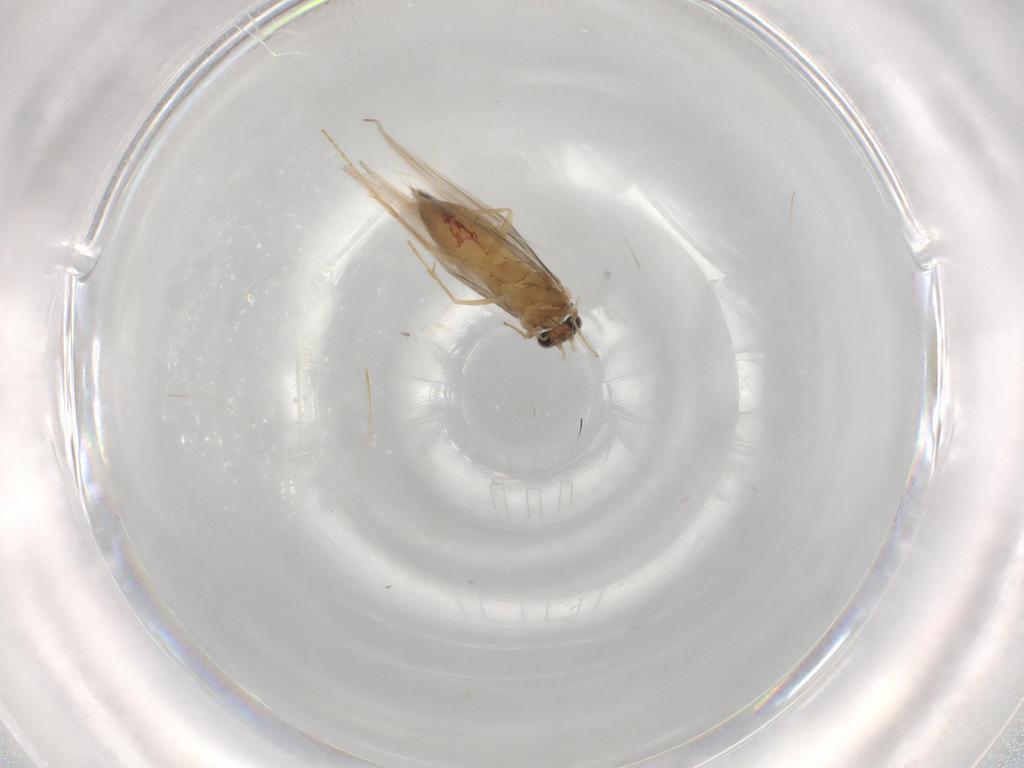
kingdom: Animalia
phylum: Arthropoda
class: Insecta
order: Trichoptera
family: Hydroptilidae
